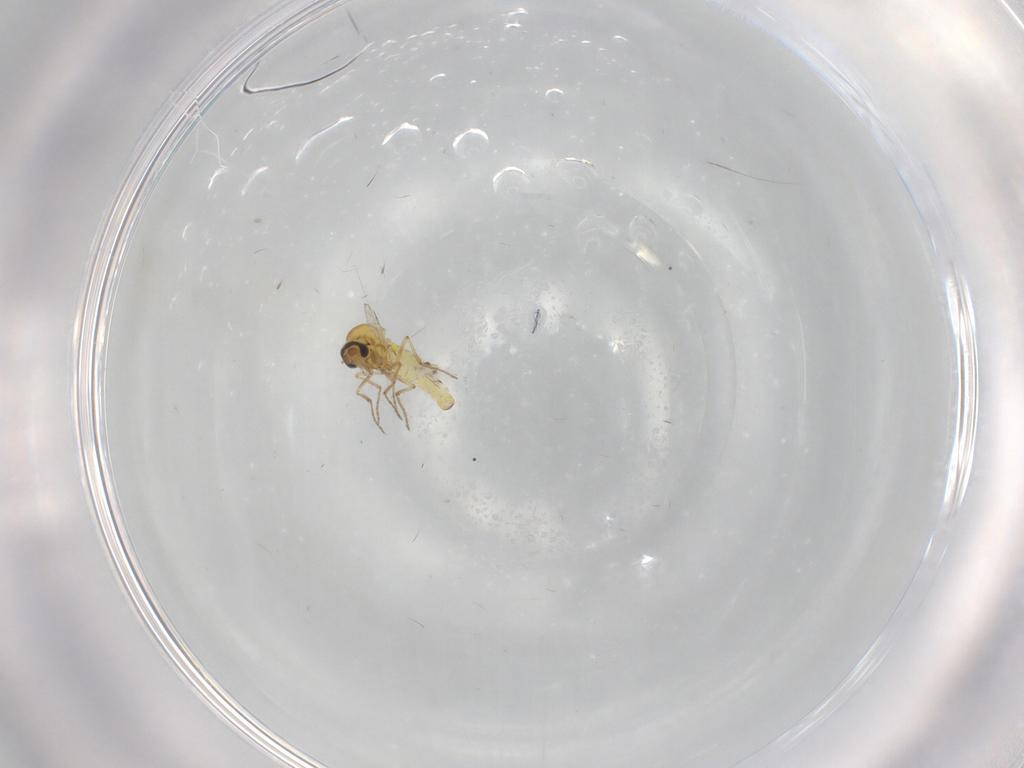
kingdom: Animalia
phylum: Arthropoda
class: Insecta
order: Diptera
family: Ceratopogonidae
